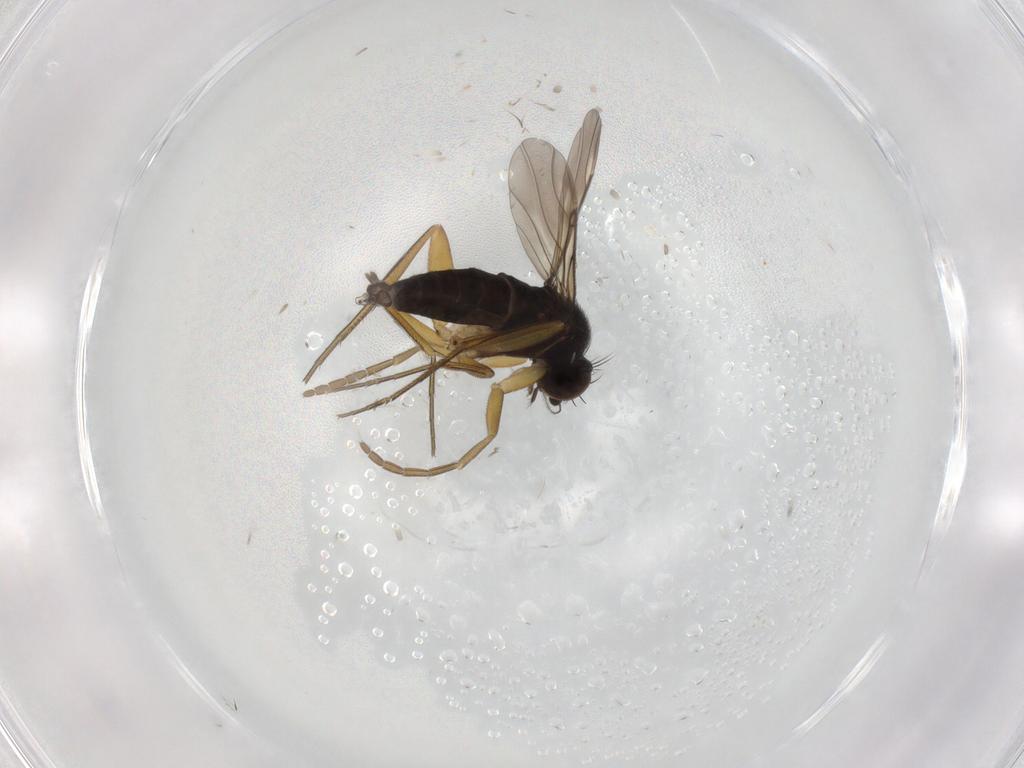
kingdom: Animalia
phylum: Arthropoda
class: Insecta
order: Diptera
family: Phoridae
